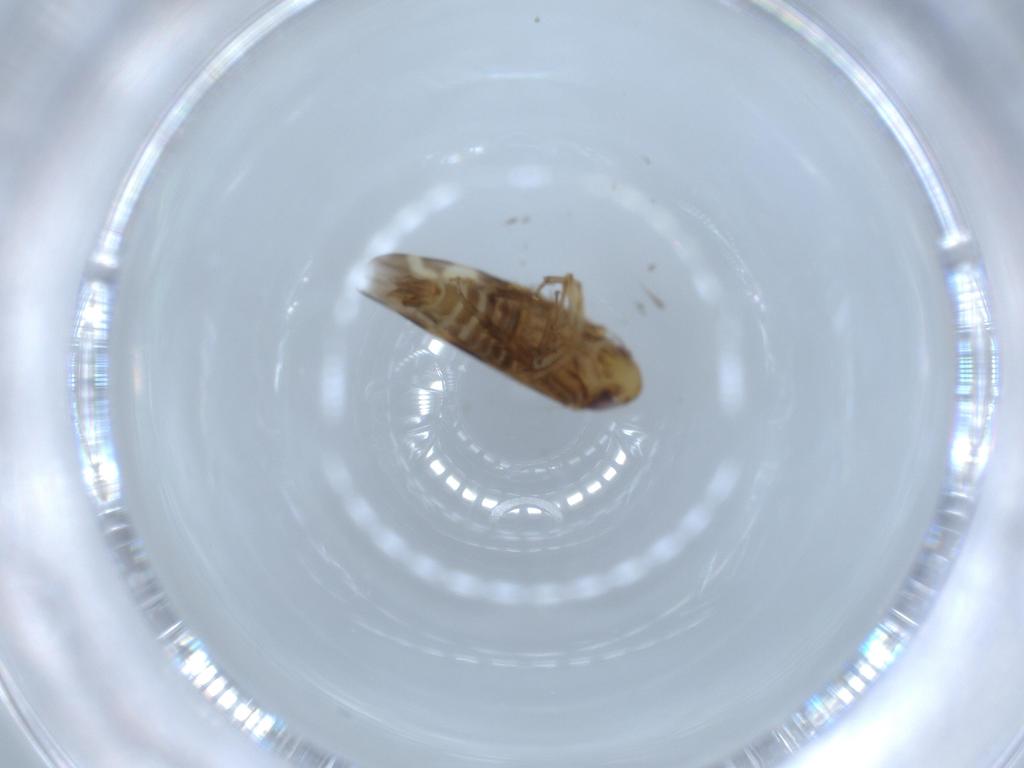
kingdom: Animalia
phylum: Arthropoda
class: Insecta
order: Hemiptera
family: Cicadellidae
